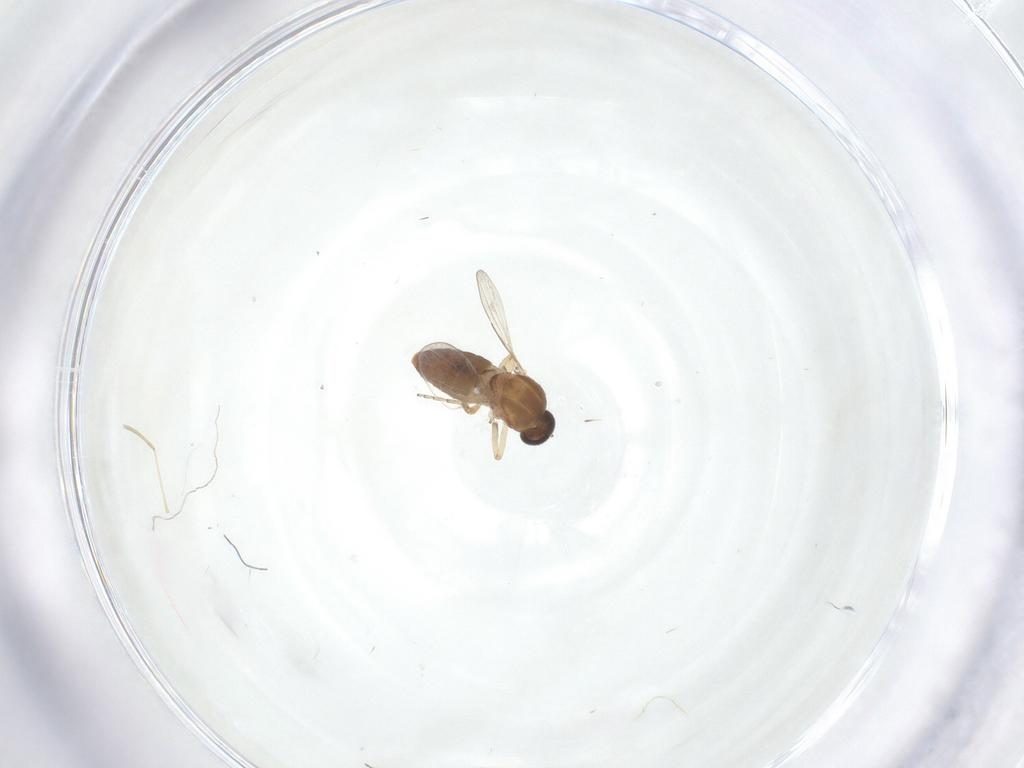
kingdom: Animalia
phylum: Arthropoda
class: Insecta
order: Diptera
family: Ceratopogonidae
